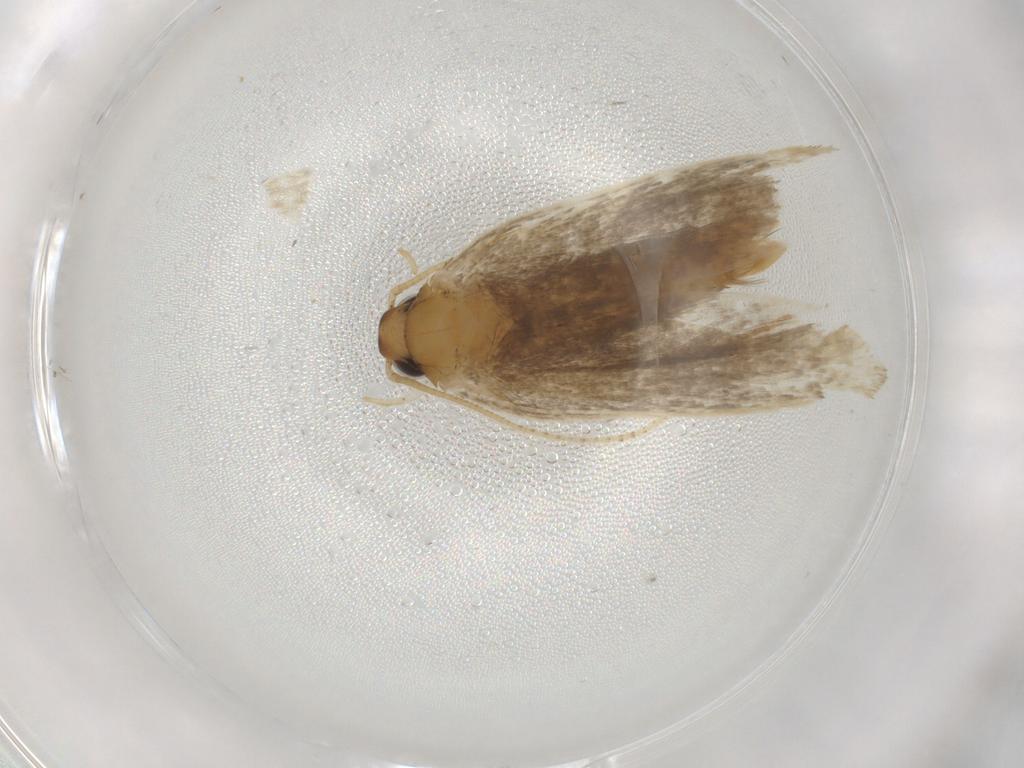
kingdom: Animalia
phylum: Arthropoda
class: Insecta
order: Lepidoptera
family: Gelechiidae
